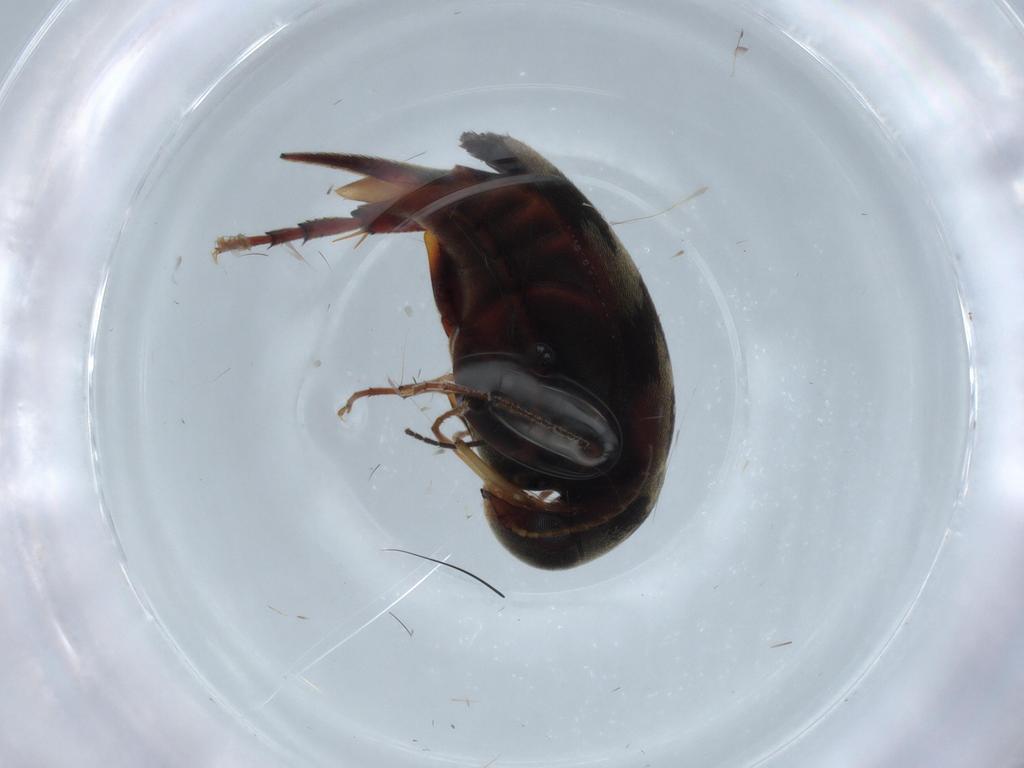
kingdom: Animalia
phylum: Arthropoda
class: Insecta
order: Coleoptera
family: Mordellidae
